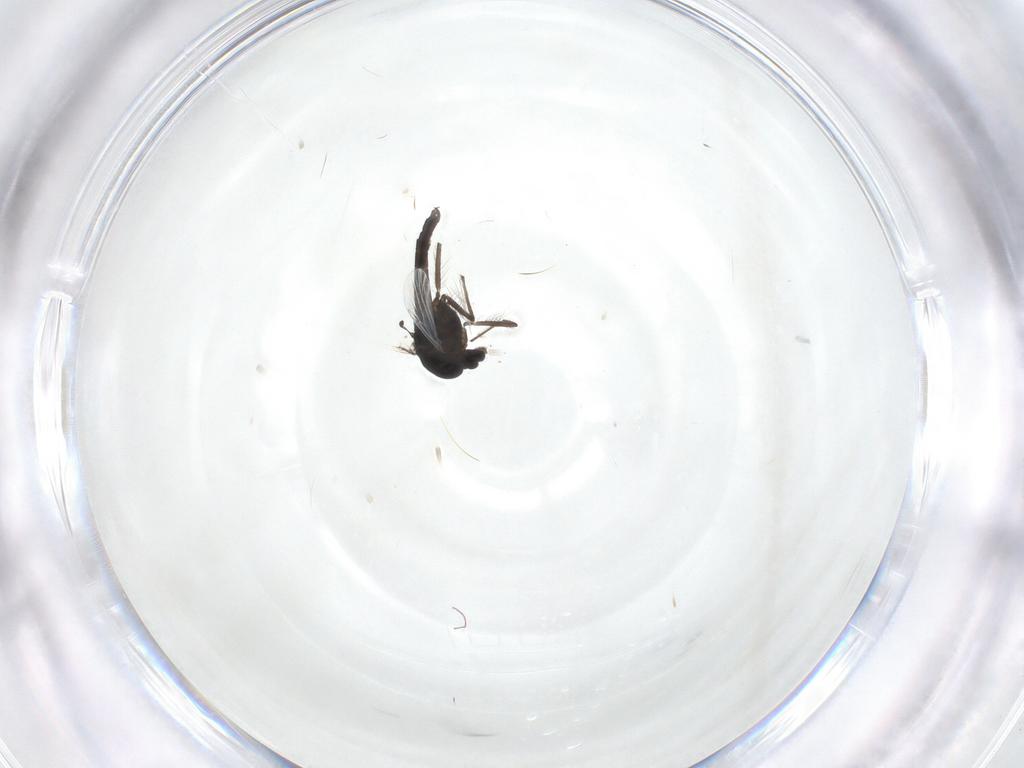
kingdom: Animalia
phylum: Arthropoda
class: Insecta
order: Diptera
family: Chironomidae
